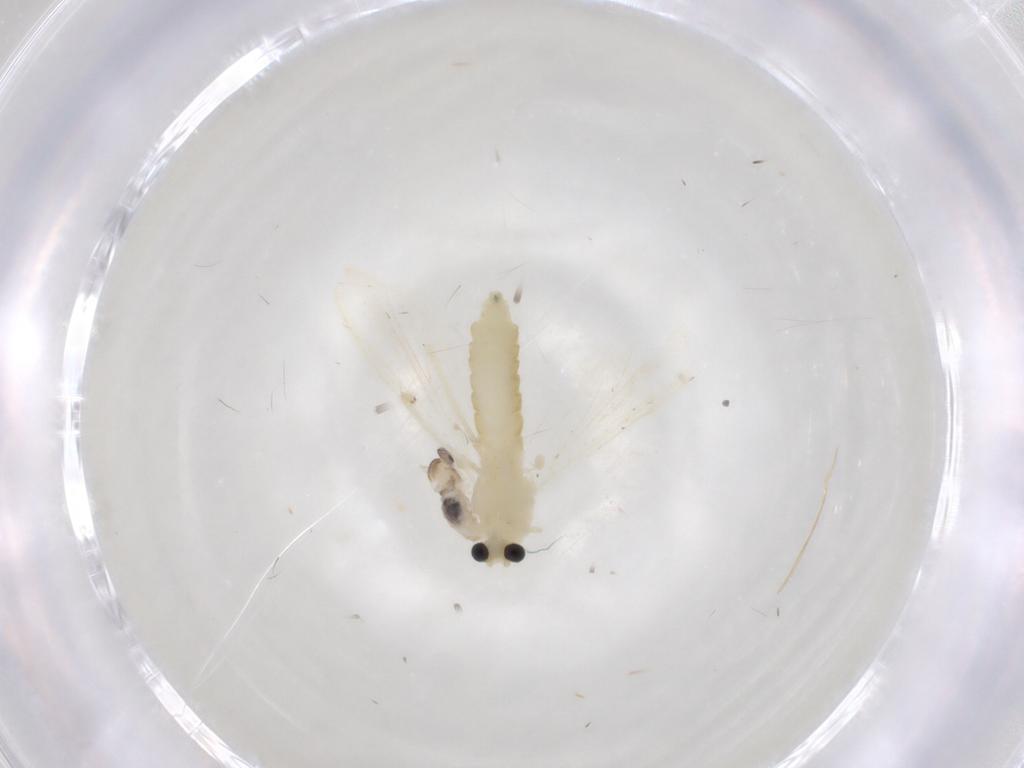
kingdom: Animalia
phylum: Arthropoda
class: Insecta
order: Diptera
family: Cecidomyiidae
